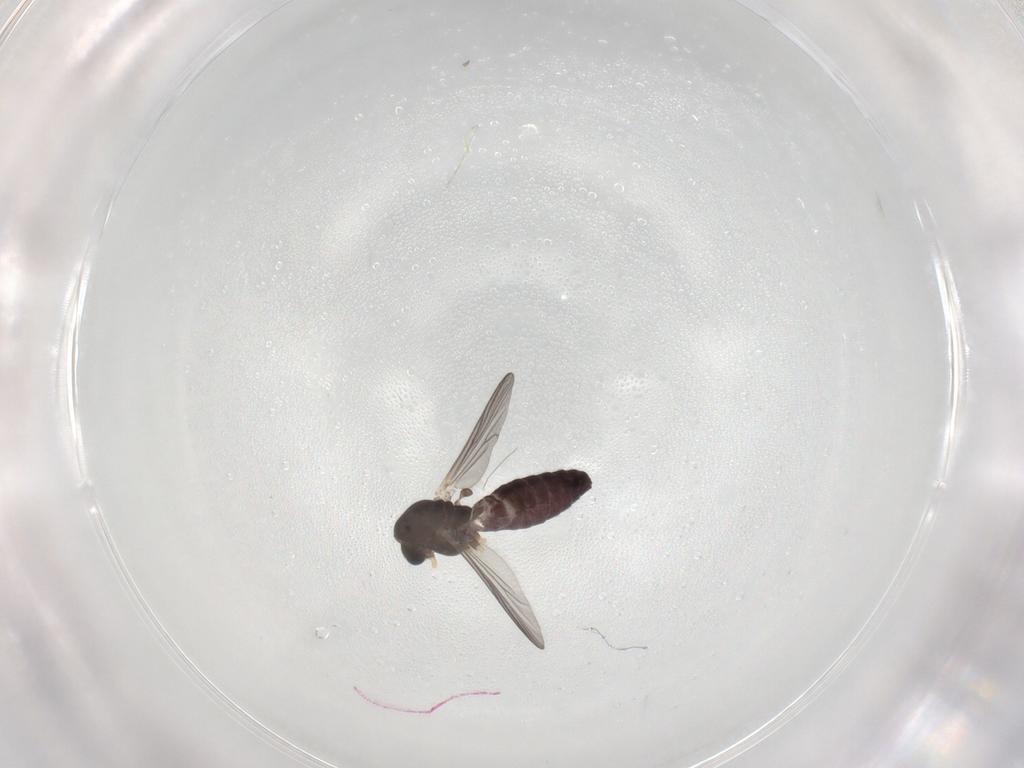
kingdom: Animalia
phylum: Arthropoda
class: Insecta
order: Diptera
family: Chironomidae
